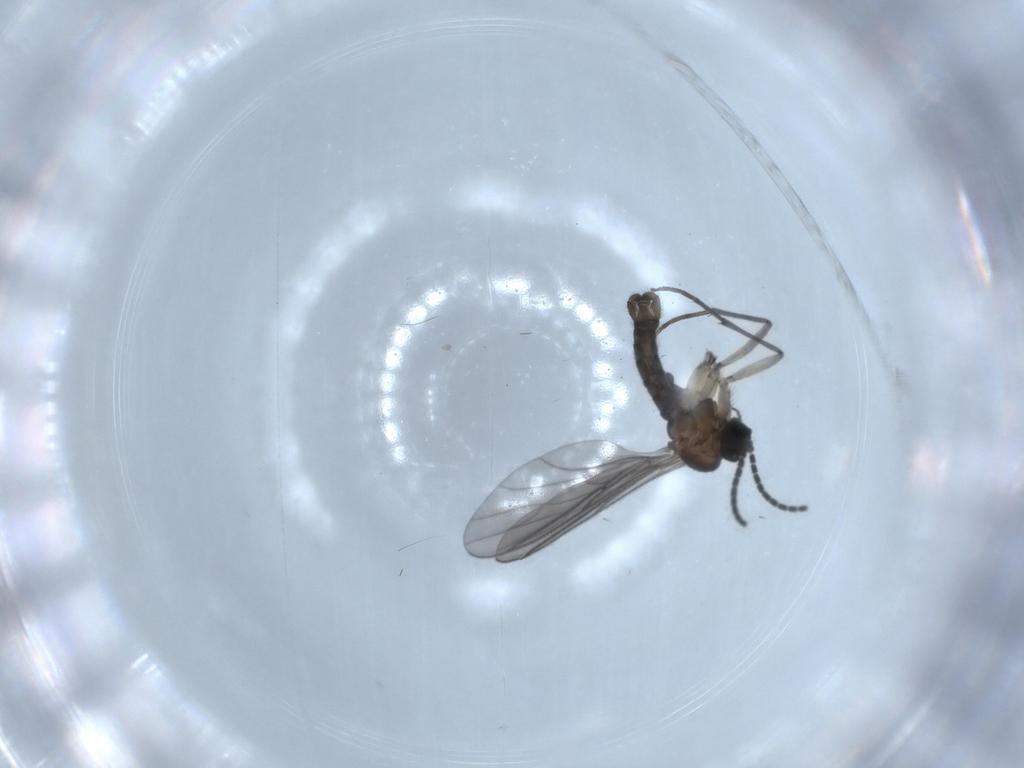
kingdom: Animalia
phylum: Arthropoda
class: Insecta
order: Diptera
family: Sciaridae
